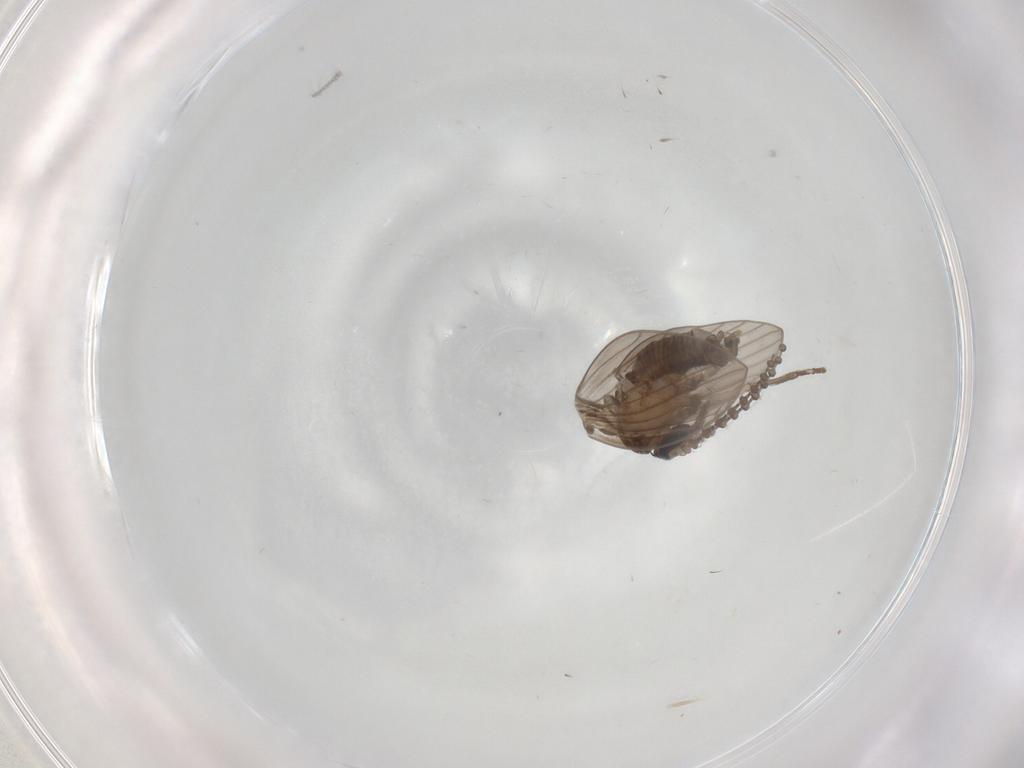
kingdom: Animalia
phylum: Arthropoda
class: Insecta
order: Diptera
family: Psychodidae
